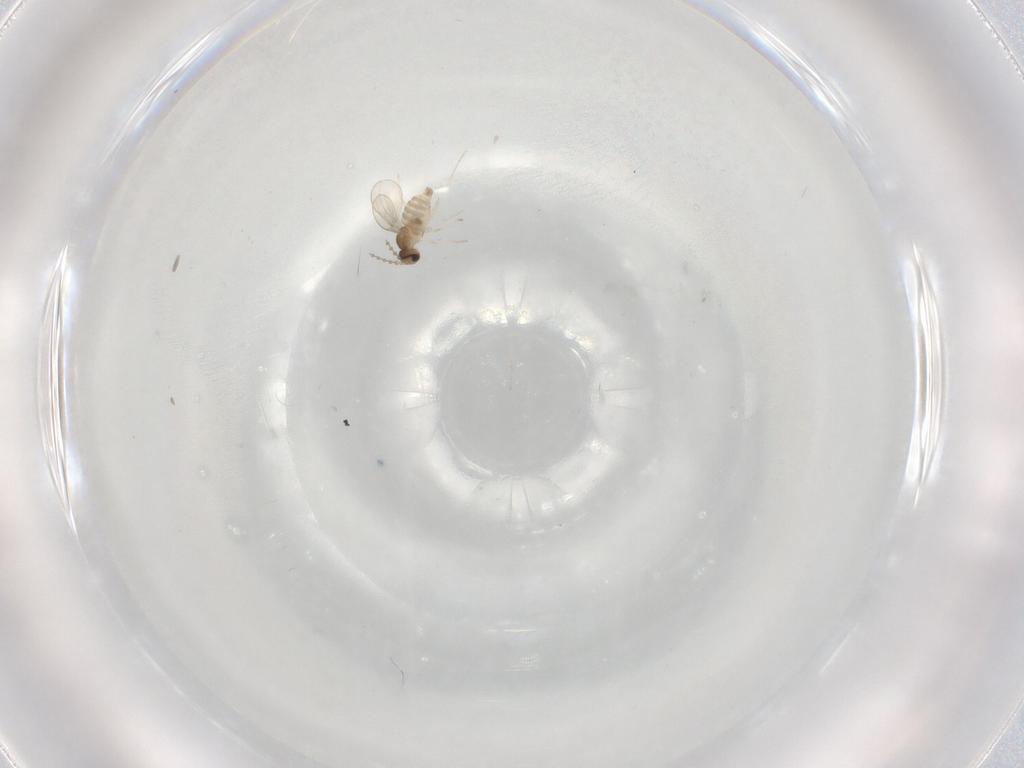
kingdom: Animalia
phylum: Arthropoda
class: Insecta
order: Diptera
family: Cecidomyiidae
